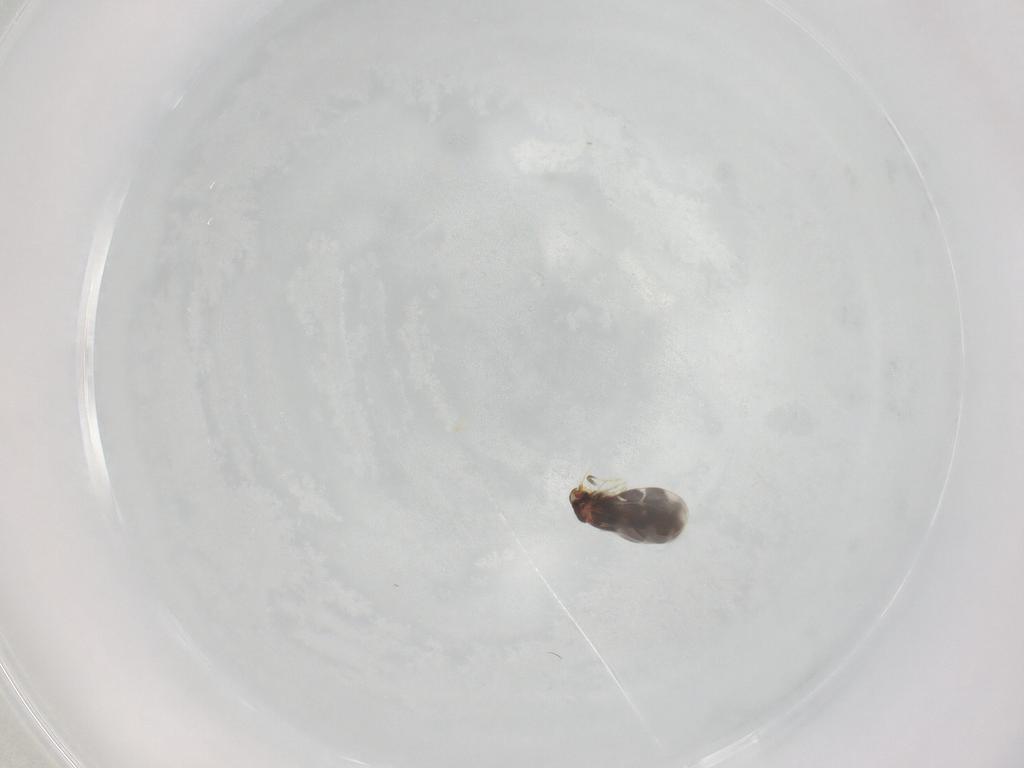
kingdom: Animalia
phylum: Arthropoda
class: Insecta
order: Hemiptera
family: Aleyrodidae
